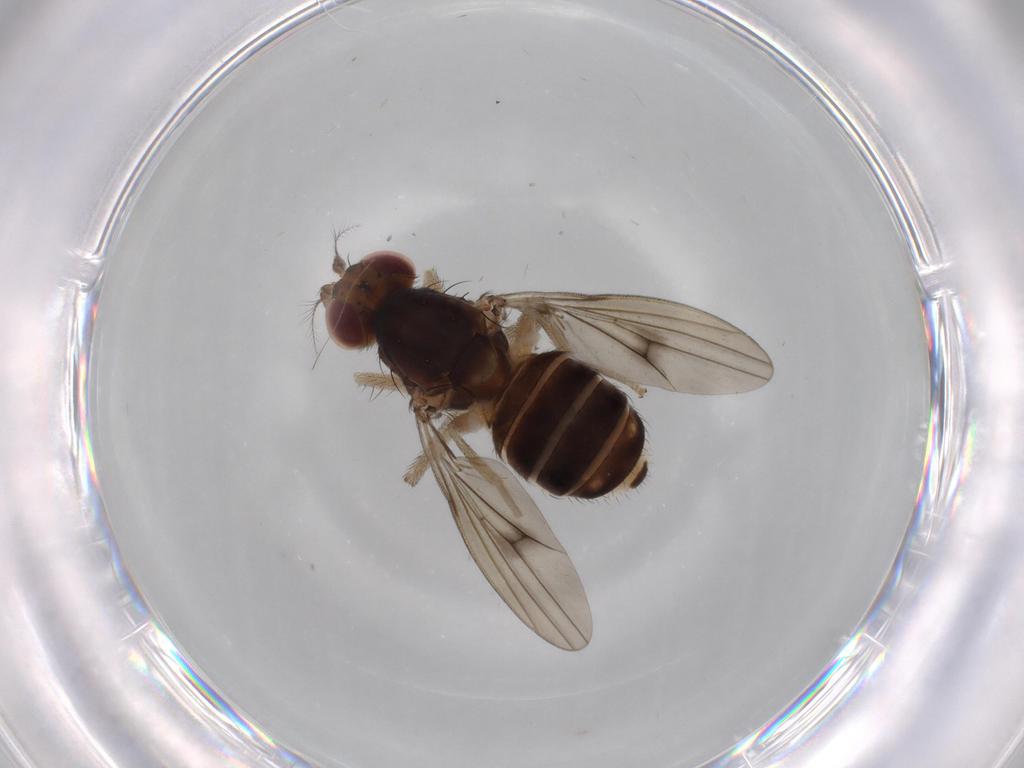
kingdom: Animalia
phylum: Arthropoda
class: Insecta
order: Diptera
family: Lauxaniidae
